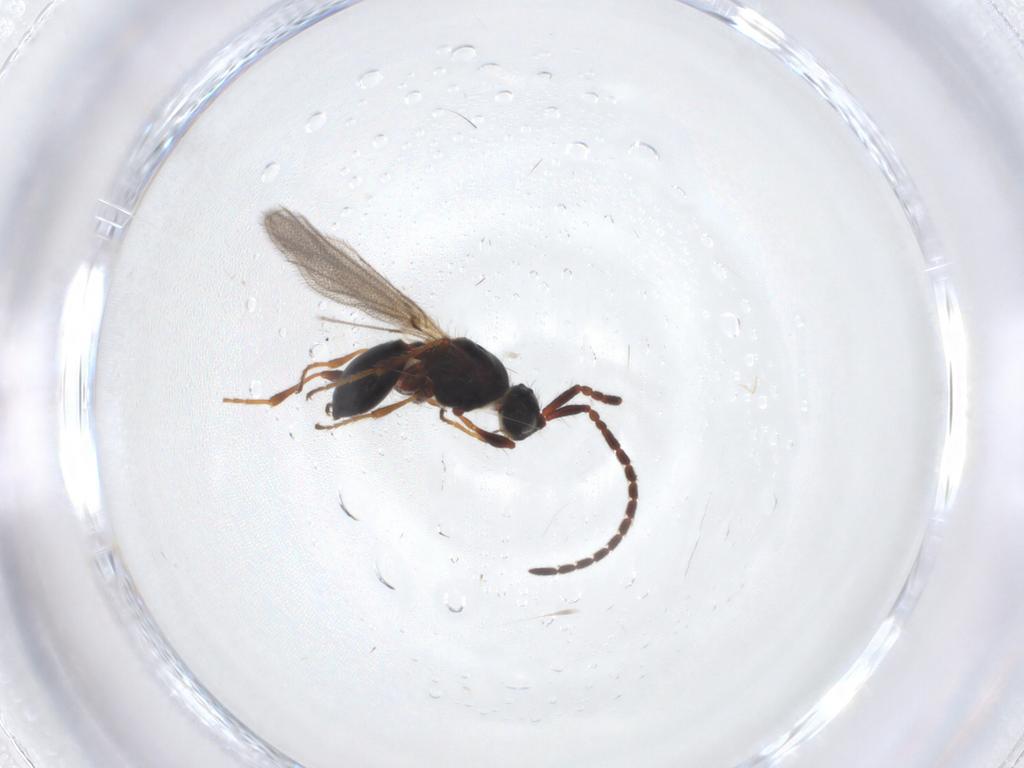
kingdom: Animalia
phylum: Arthropoda
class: Insecta
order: Hymenoptera
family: Diapriidae
